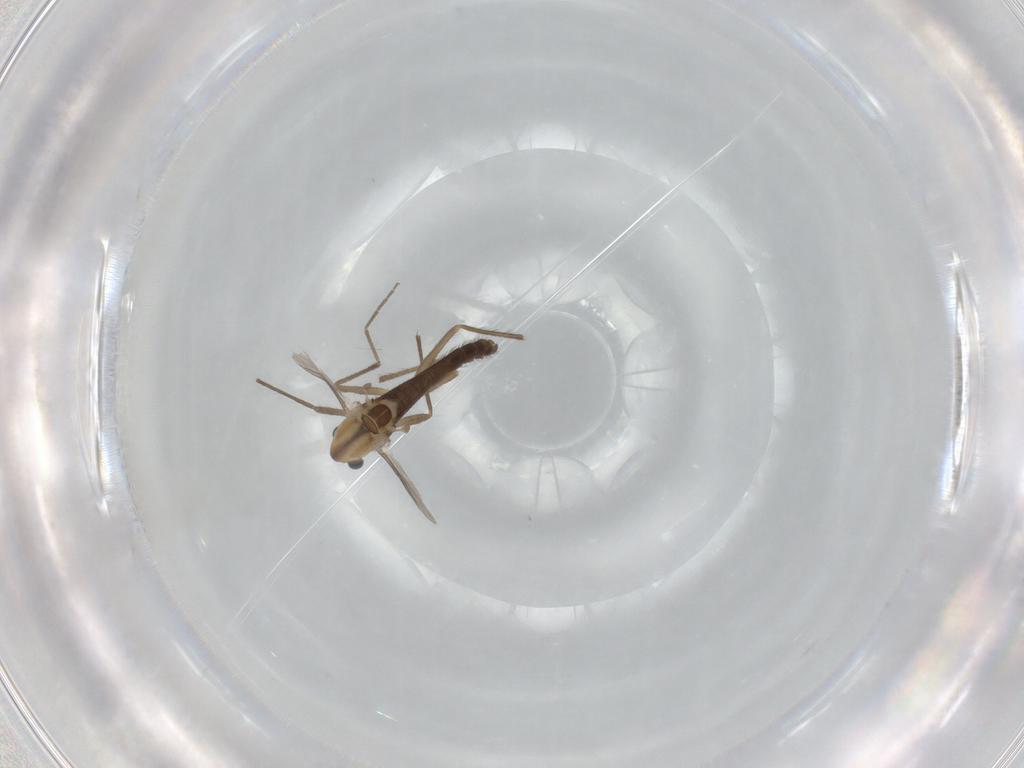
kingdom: Animalia
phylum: Arthropoda
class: Insecta
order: Diptera
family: Chironomidae
